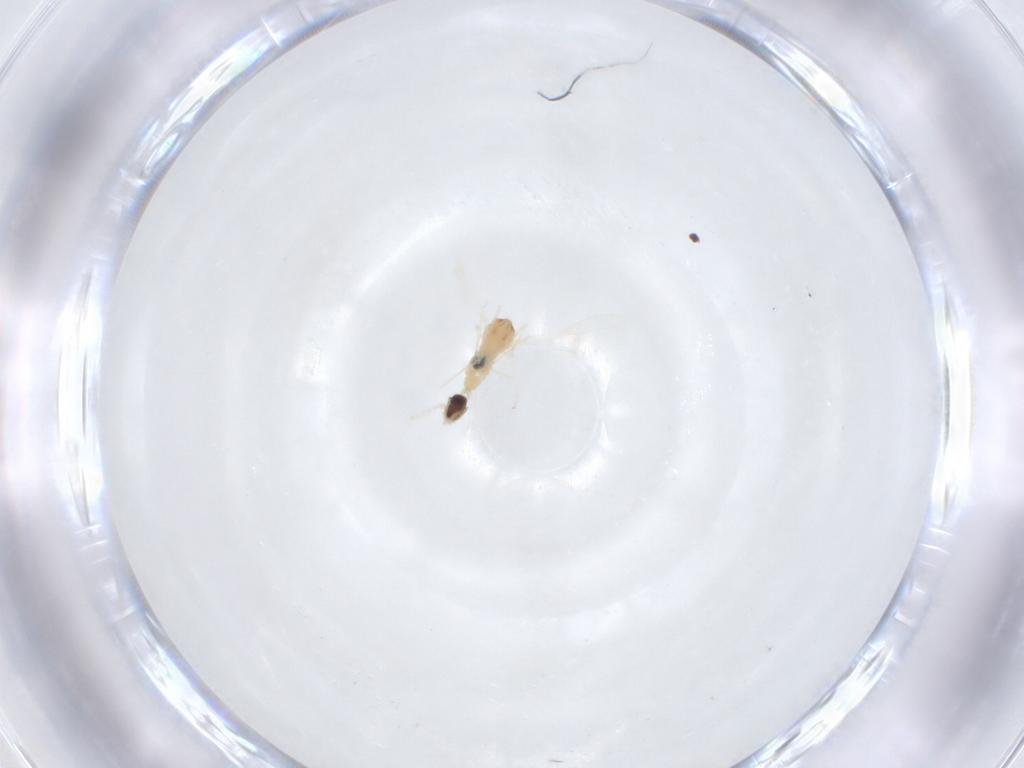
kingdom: Animalia
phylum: Arthropoda
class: Insecta
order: Diptera
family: Cecidomyiidae
